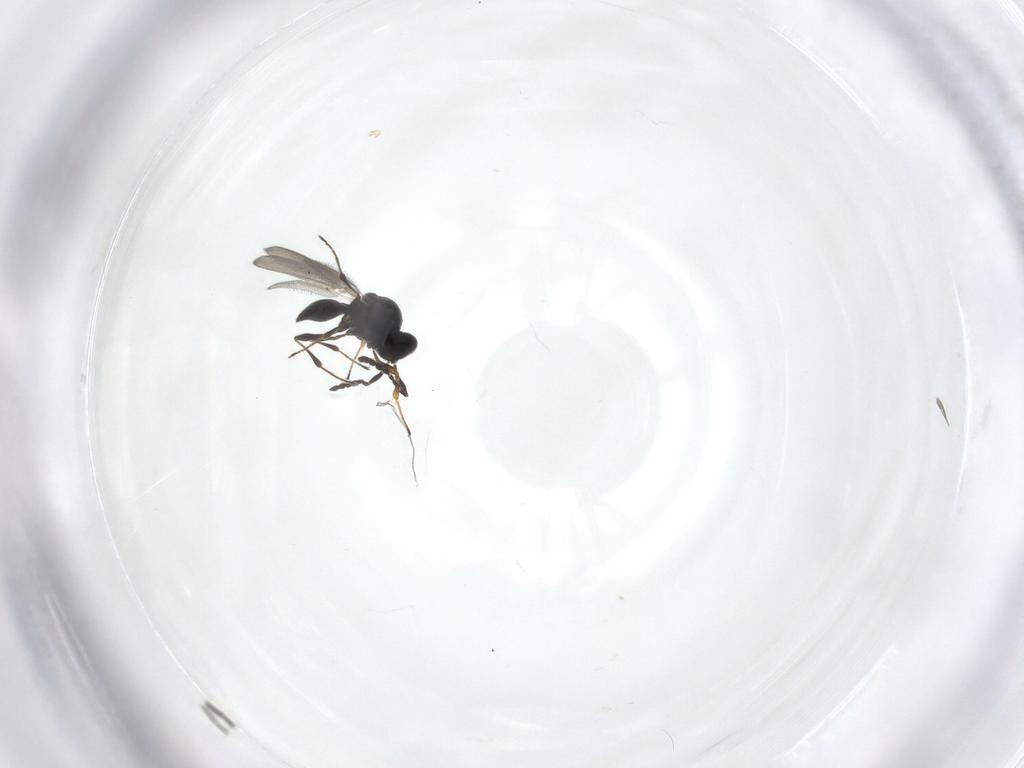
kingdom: Animalia
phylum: Arthropoda
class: Insecta
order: Hymenoptera
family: Platygastridae
